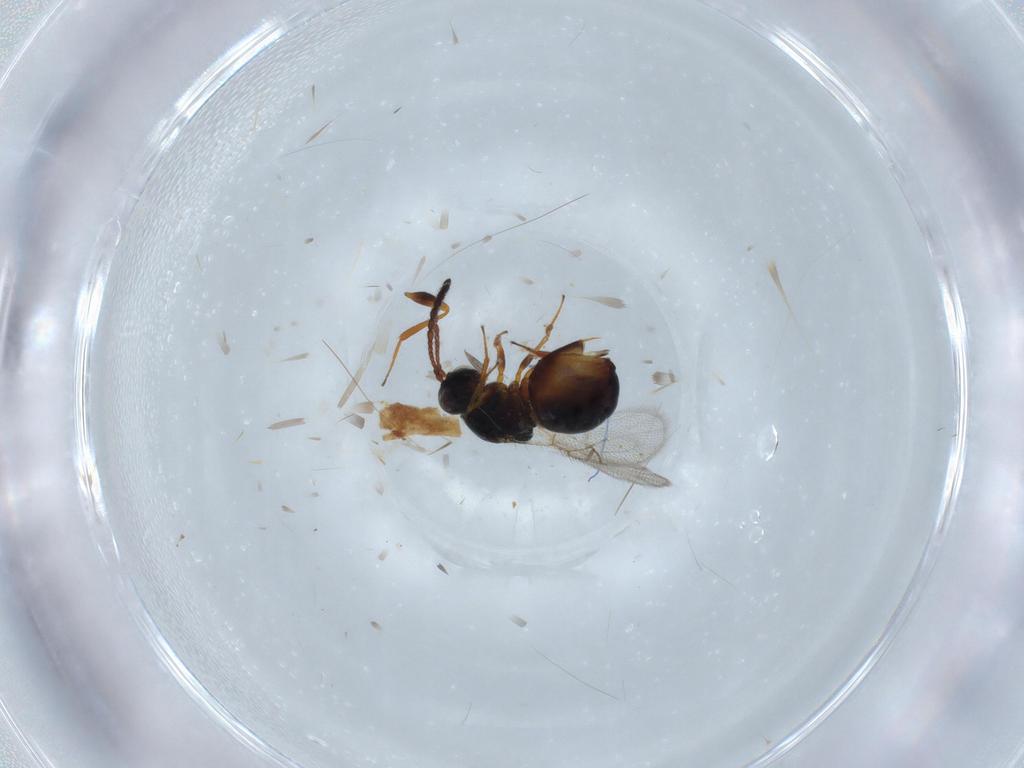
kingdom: Animalia
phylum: Arthropoda
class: Insecta
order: Hymenoptera
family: Figitidae
